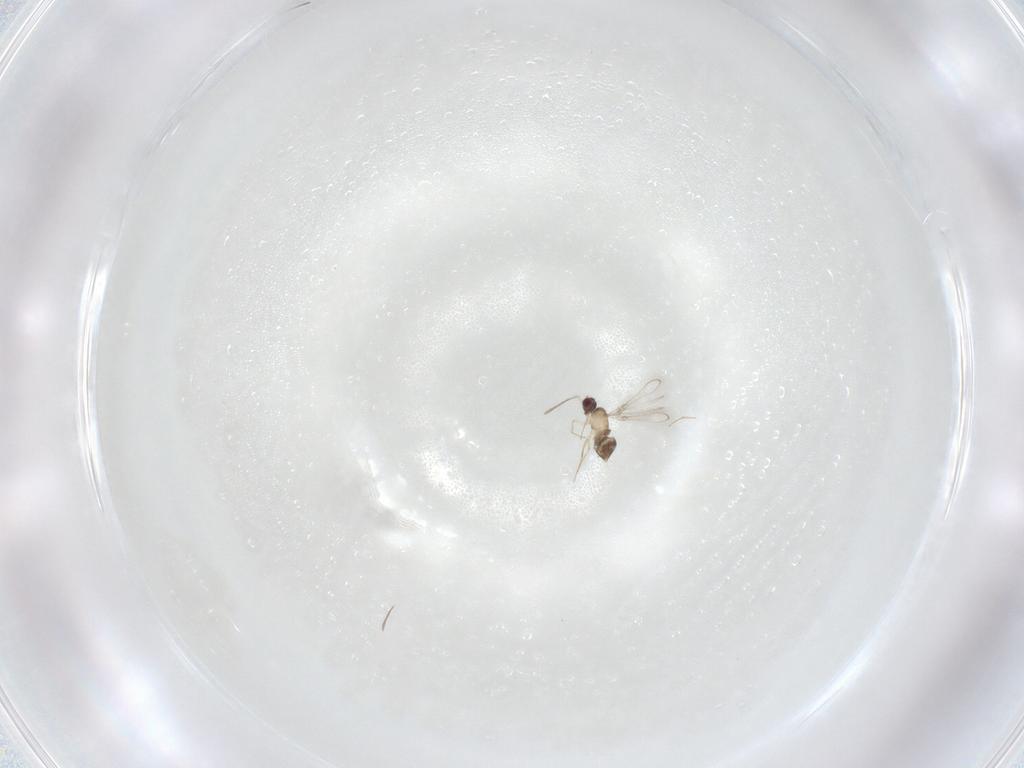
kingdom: Animalia
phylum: Arthropoda
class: Insecta
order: Hymenoptera
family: Mymaridae
